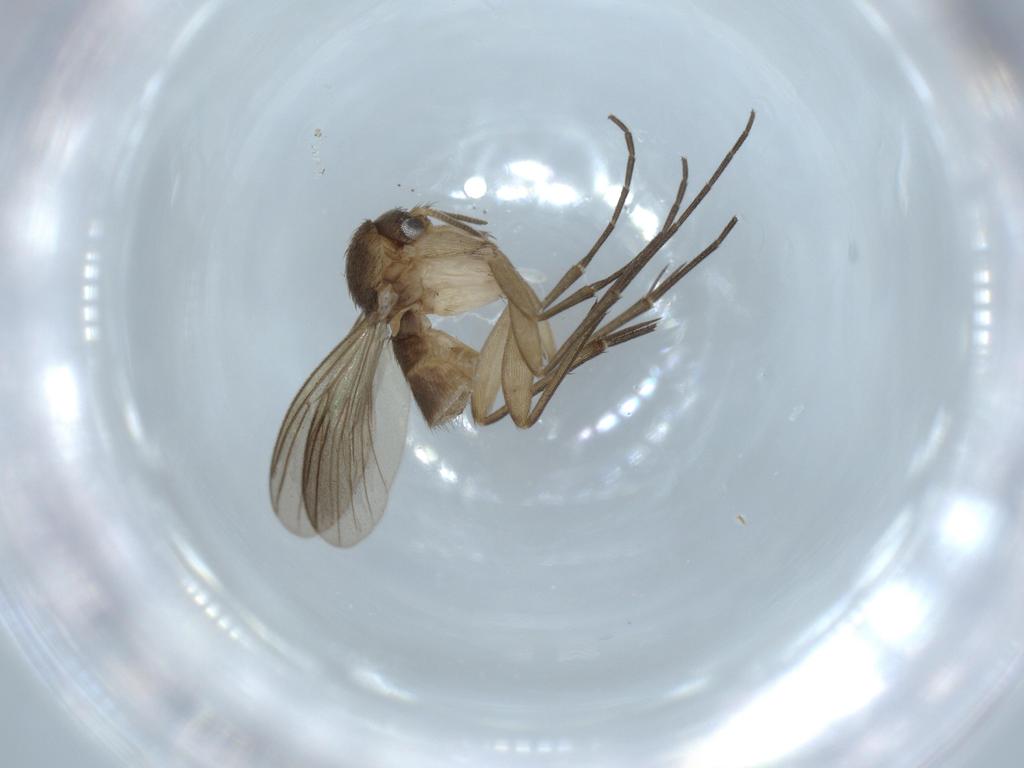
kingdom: Animalia
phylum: Arthropoda
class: Insecta
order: Diptera
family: Mycetophilidae
